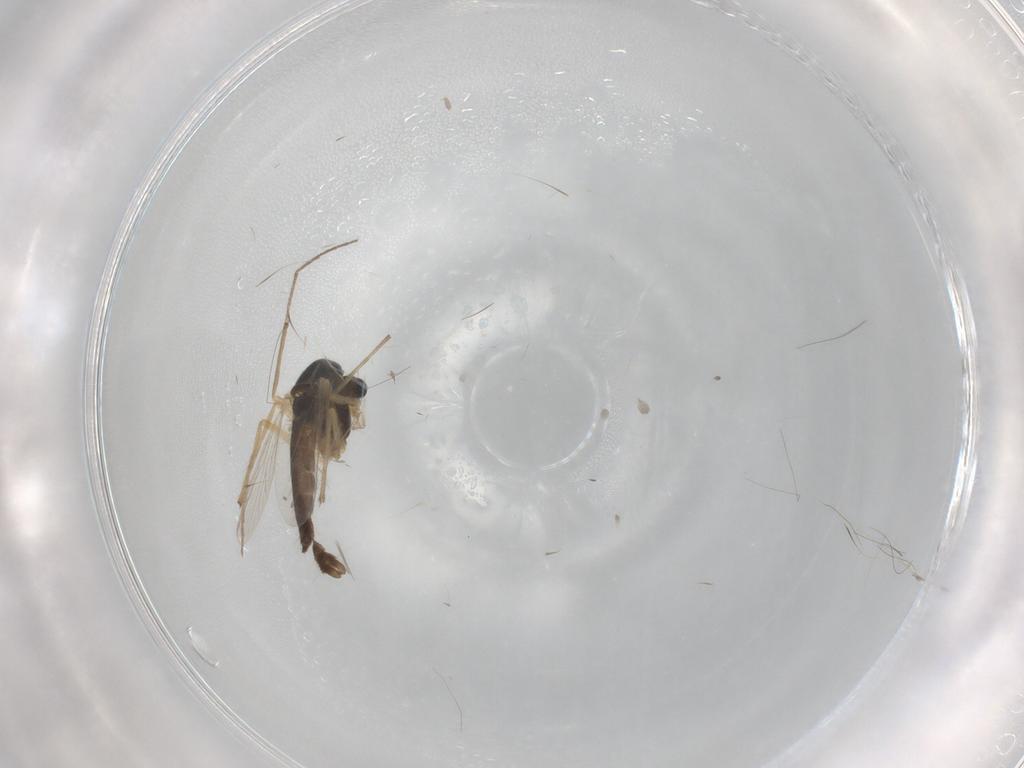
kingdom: Animalia
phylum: Arthropoda
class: Insecta
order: Diptera
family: Chironomidae
